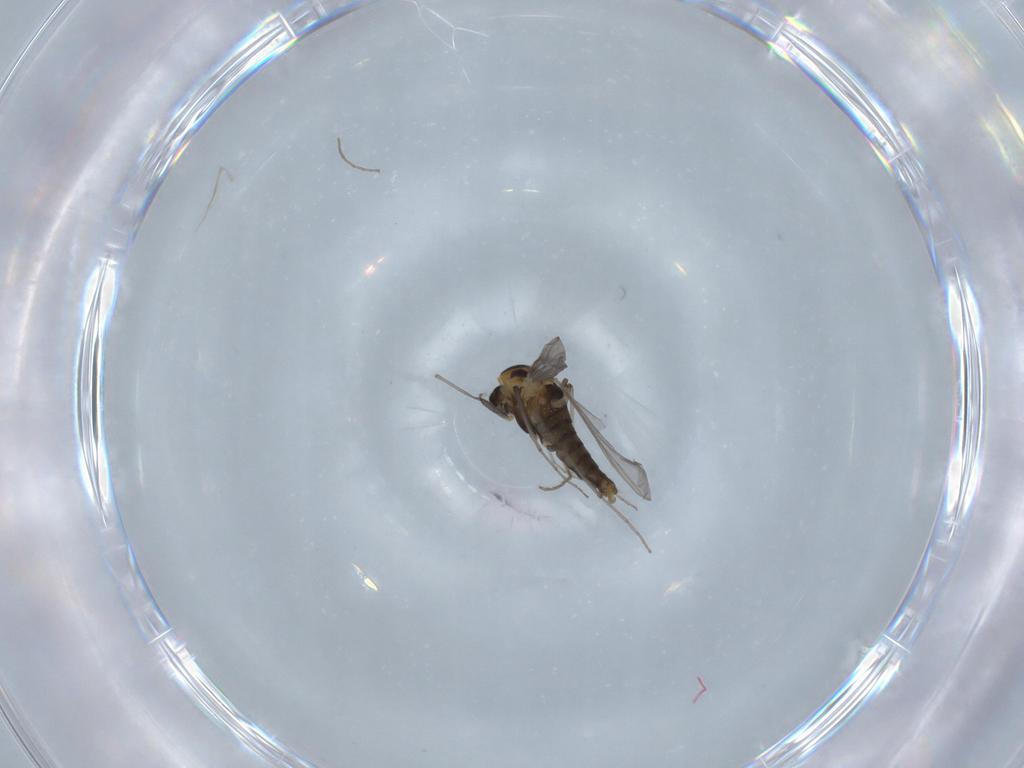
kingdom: Animalia
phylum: Arthropoda
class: Insecta
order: Diptera
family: Chironomidae
